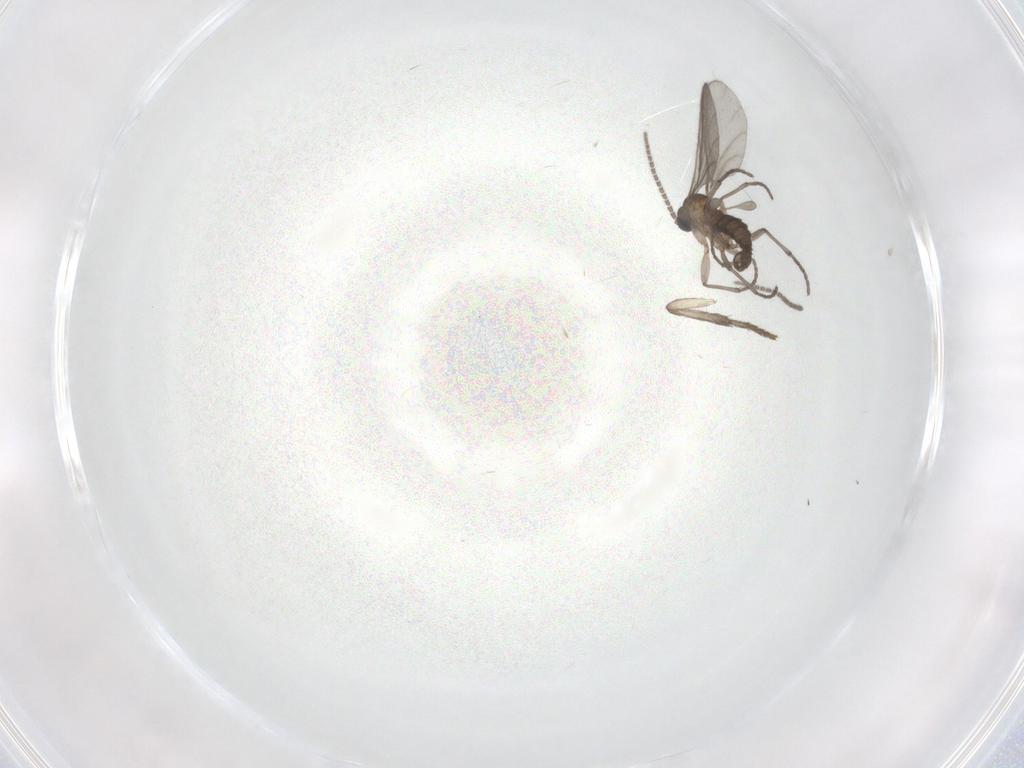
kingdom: Animalia
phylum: Arthropoda
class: Insecta
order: Diptera
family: Sciaridae
